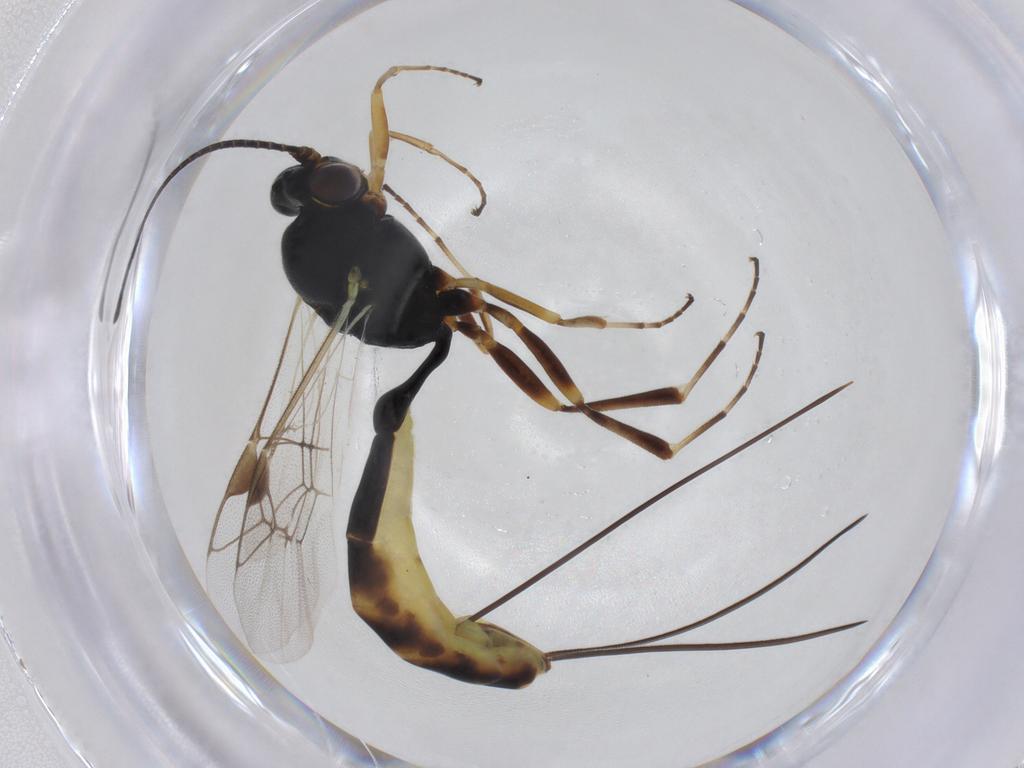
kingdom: Animalia
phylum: Arthropoda
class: Insecta
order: Hymenoptera
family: Ichneumonidae
